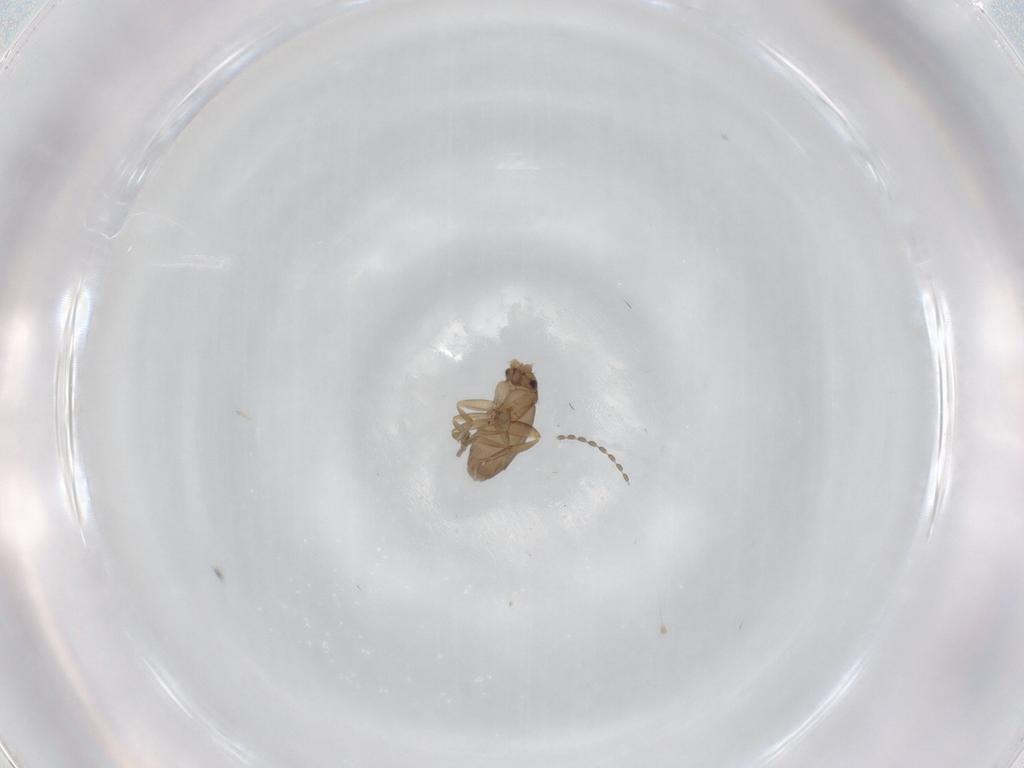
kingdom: Animalia
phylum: Arthropoda
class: Insecta
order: Diptera
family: Phoridae
